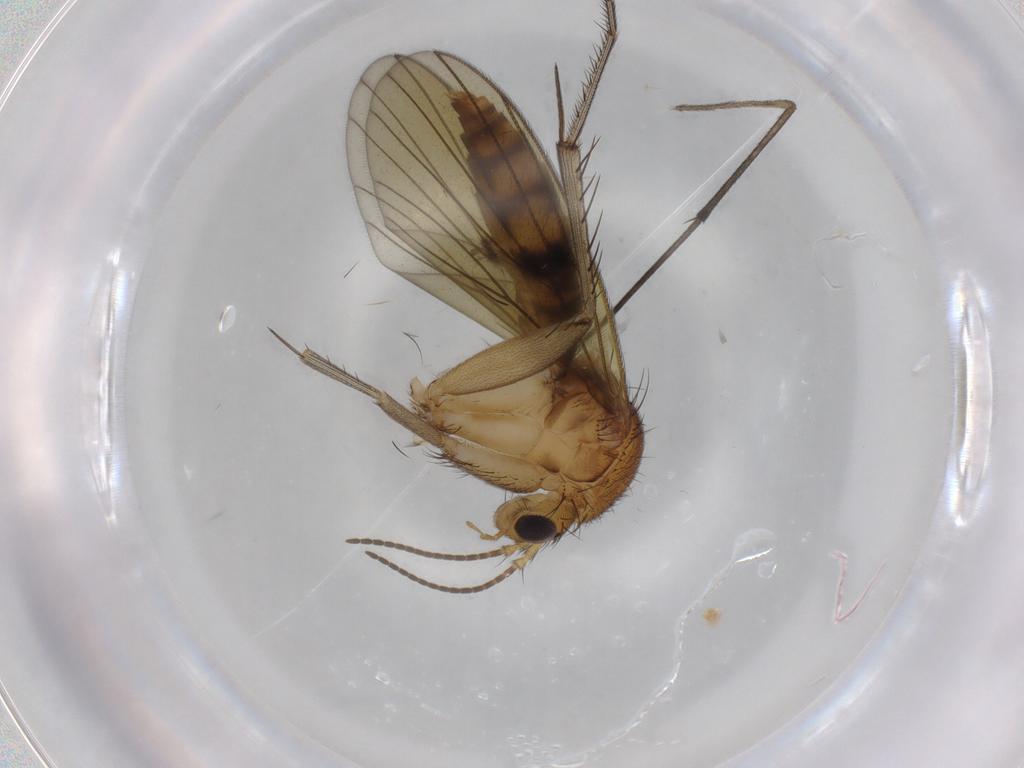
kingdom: Animalia
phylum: Arthropoda
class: Insecta
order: Diptera
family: Mycetophilidae
